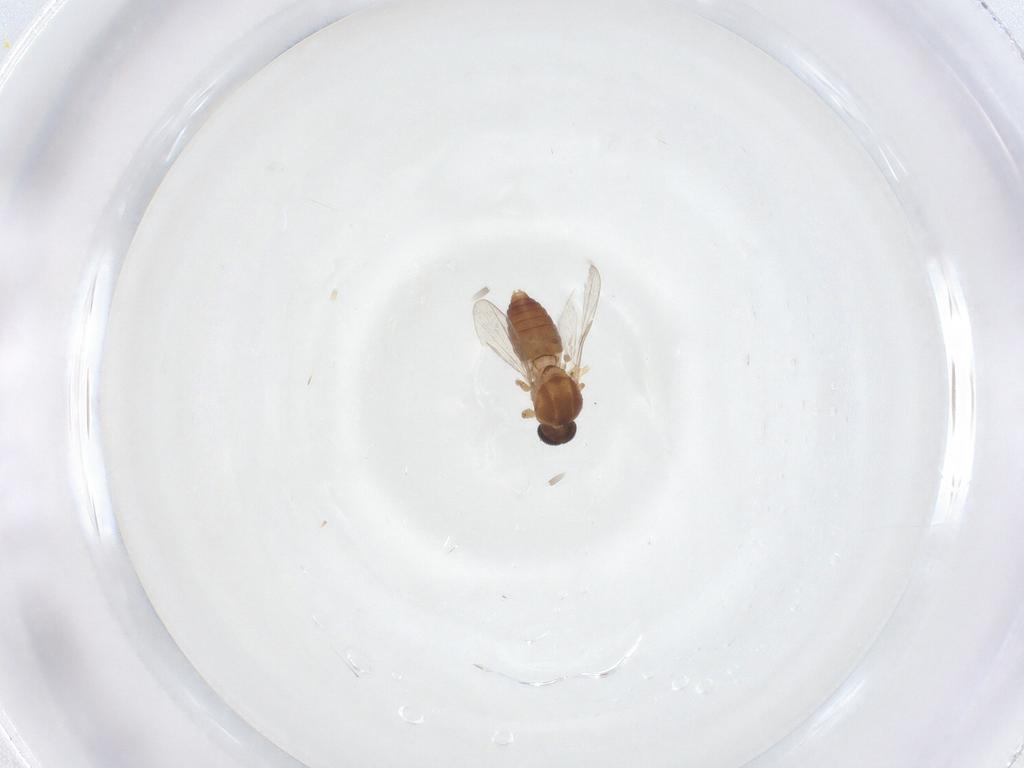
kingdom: Animalia
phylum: Arthropoda
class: Insecta
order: Diptera
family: Ceratopogonidae
